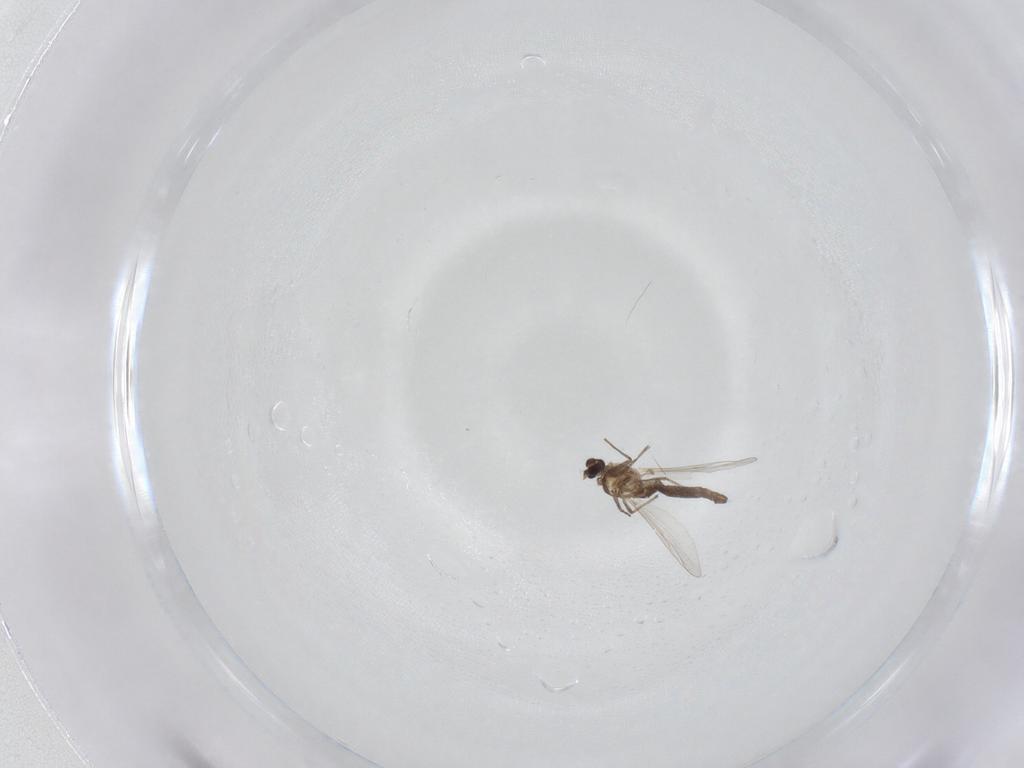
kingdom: Animalia
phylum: Arthropoda
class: Insecta
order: Diptera
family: Chironomidae
